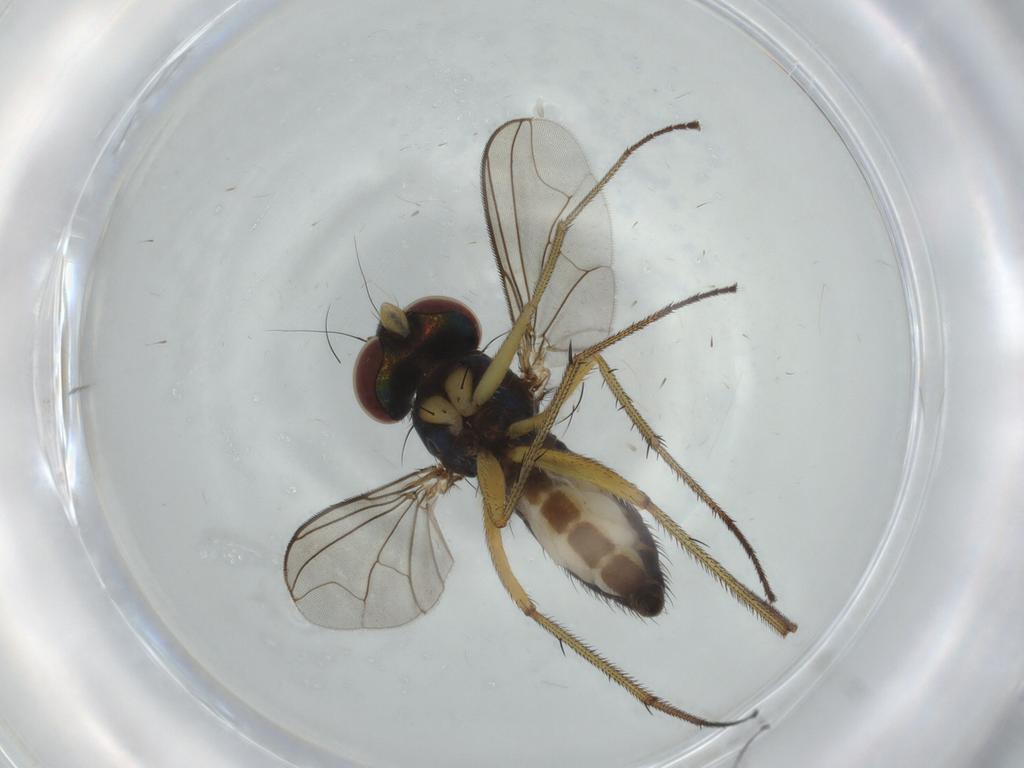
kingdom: Animalia
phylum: Arthropoda
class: Insecta
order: Diptera
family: Dolichopodidae
